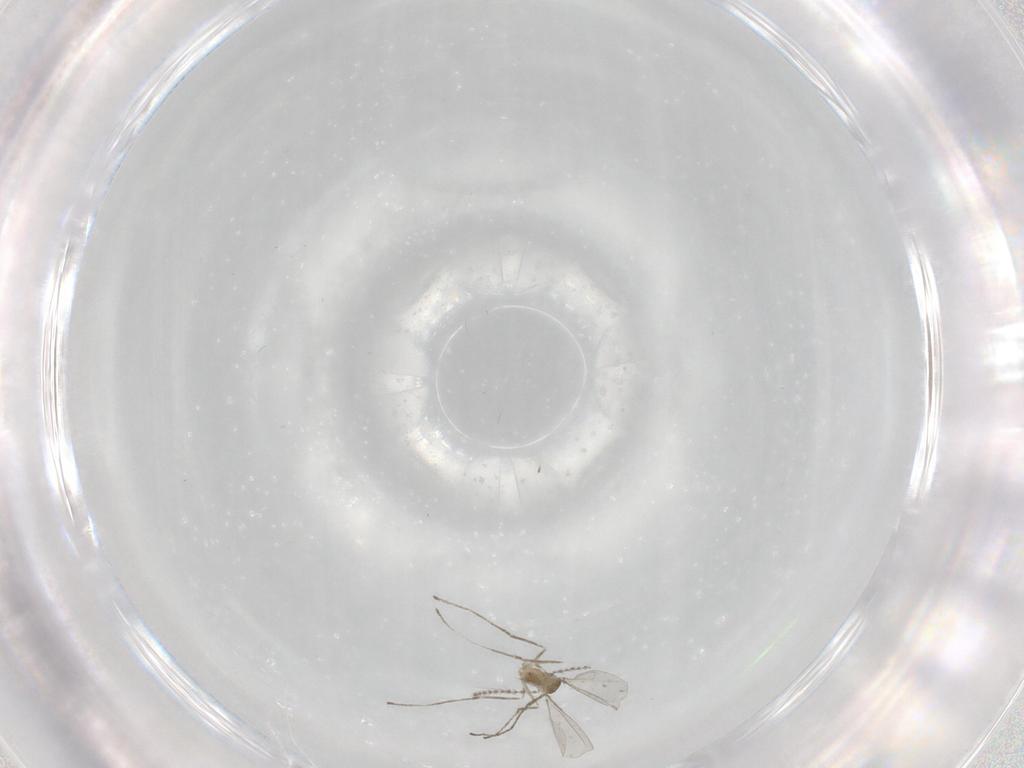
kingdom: Animalia
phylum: Arthropoda
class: Insecta
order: Diptera
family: Cecidomyiidae
